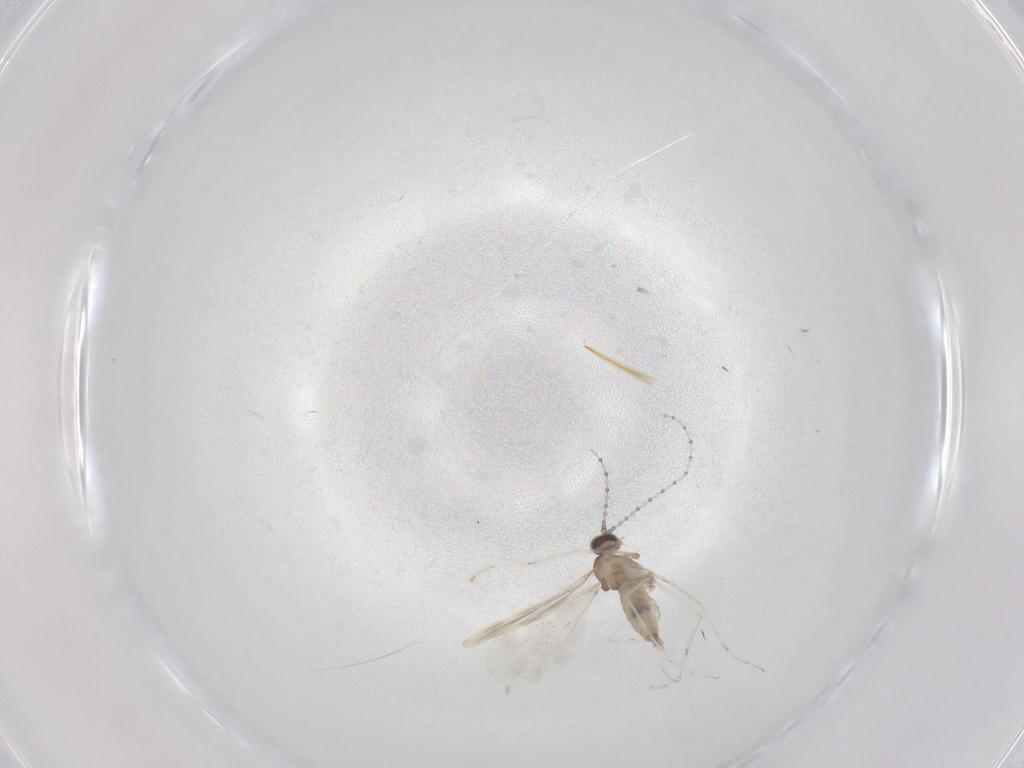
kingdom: Animalia
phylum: Arthropoda
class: Insecta
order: Diptera
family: Cecidomyiidae
